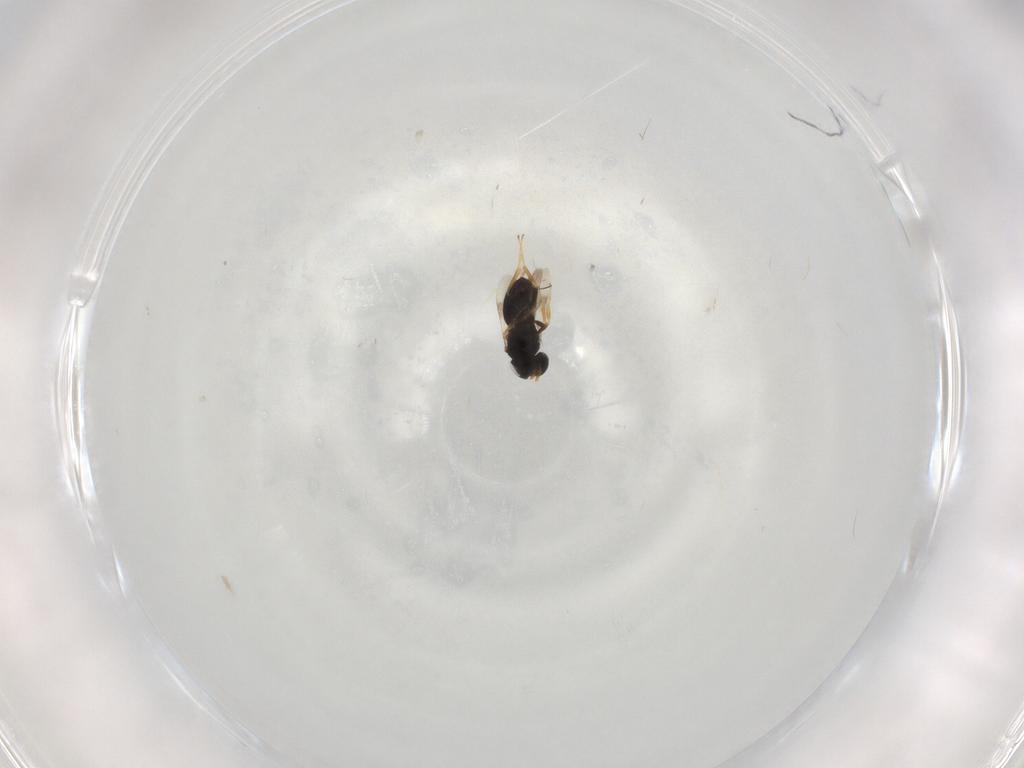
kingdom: Animalia
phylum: Arthropoda
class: Insecta
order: Hymenoptera
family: Scelionidae
